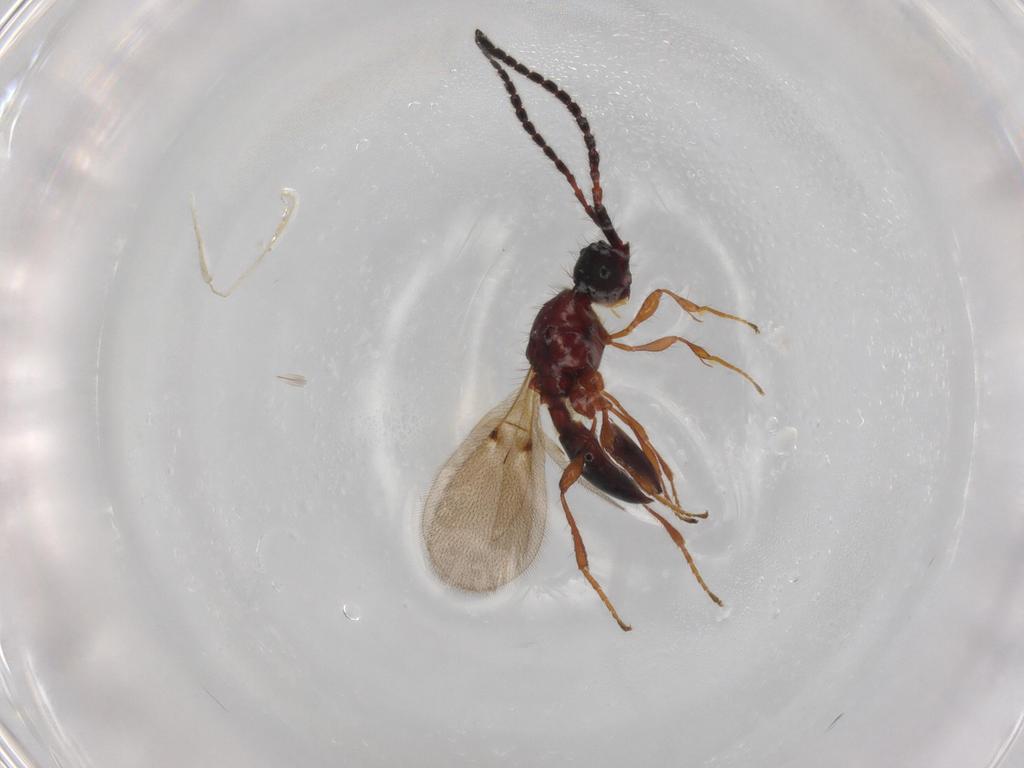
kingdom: Animalia
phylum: Arthropoda
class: Insecta
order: Hymenoptera
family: Diapriidae
